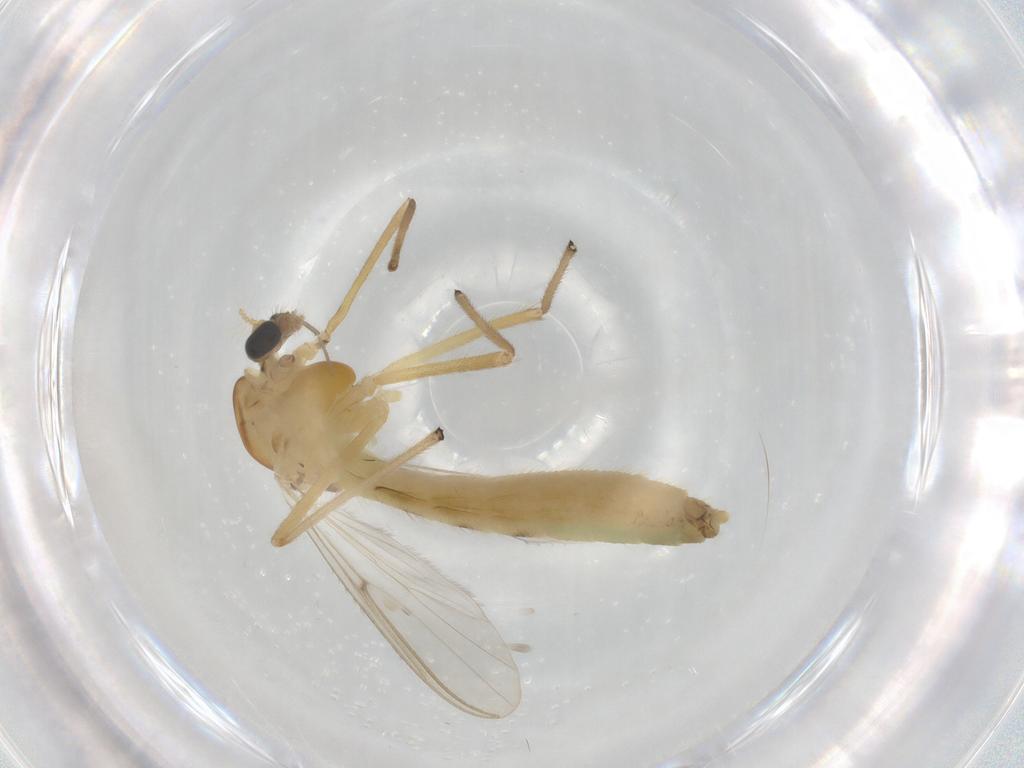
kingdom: Animalia
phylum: Arthropoda
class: Insecta
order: Diptera
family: Chironomidae
